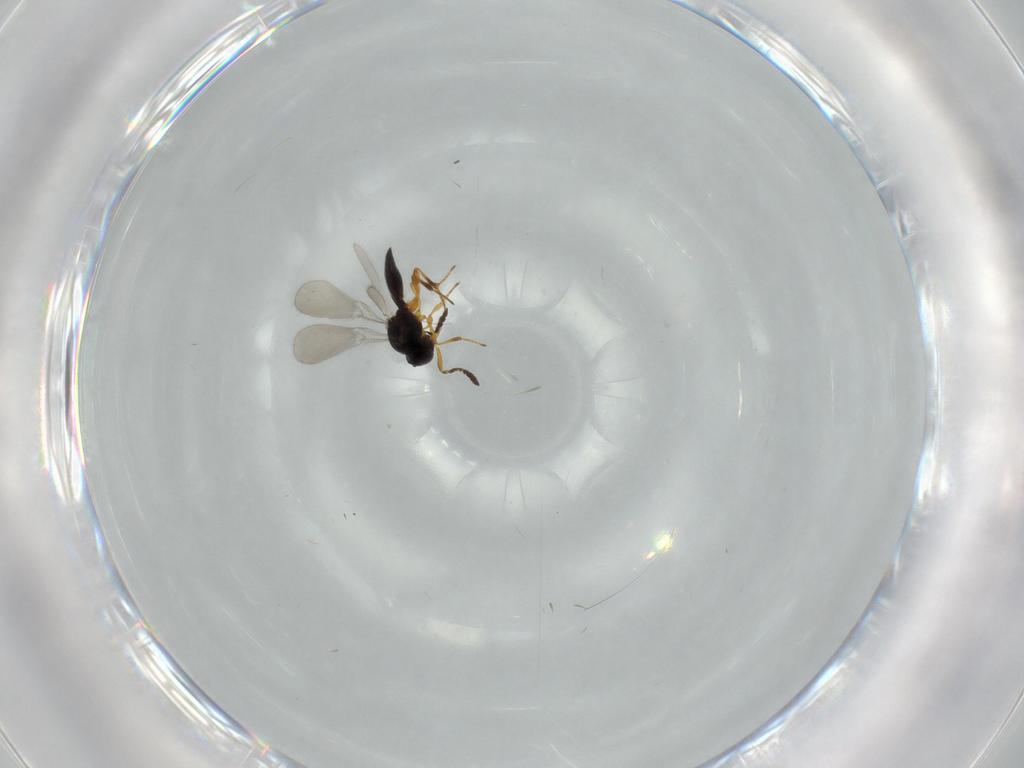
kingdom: Animalia
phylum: Arthropoda
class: Insecta
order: Hymenoptera
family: Platygastridae
